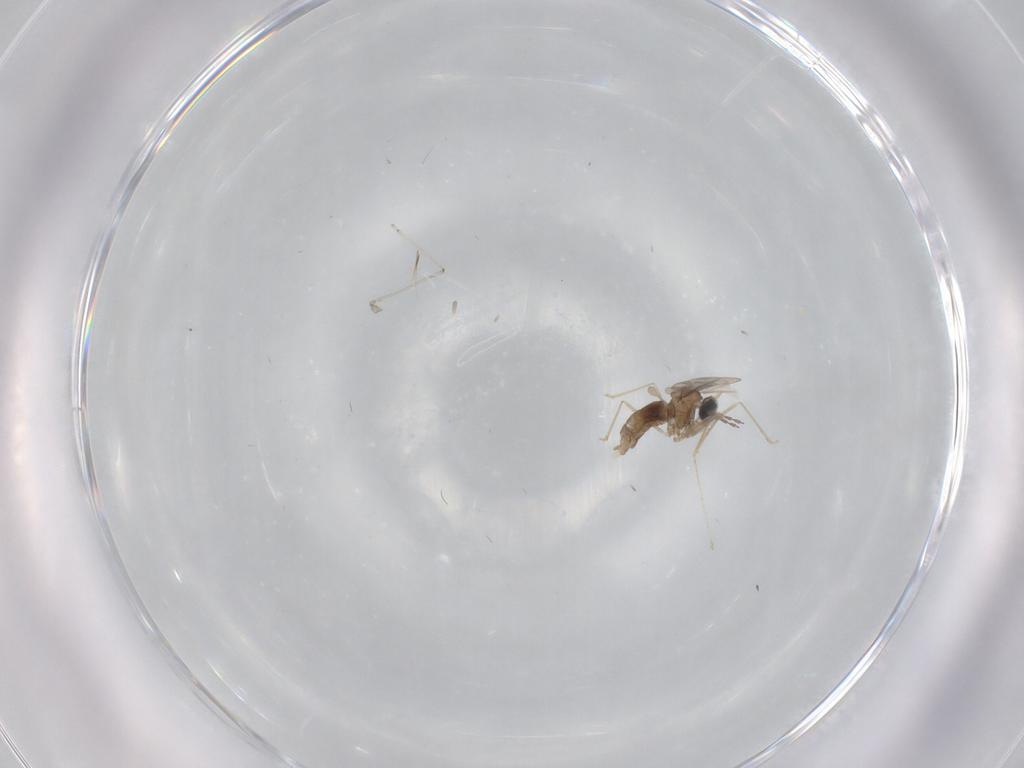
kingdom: Animalia
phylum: Arthropoda
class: Insecta
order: Diptera
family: Cecidomyiidae
